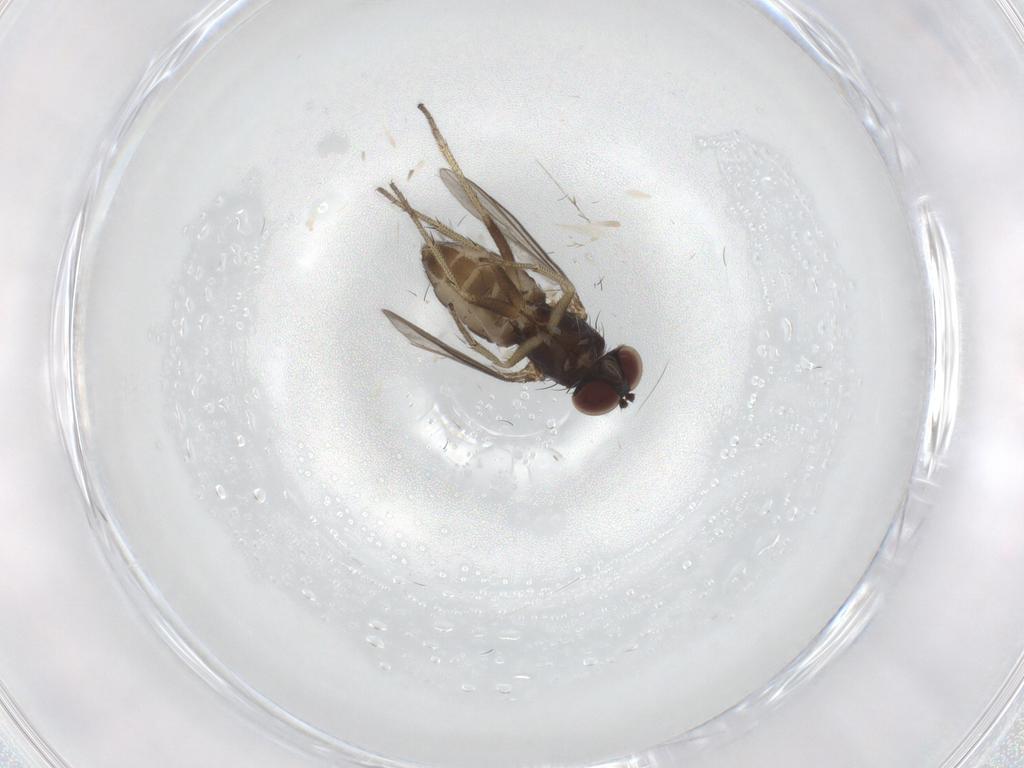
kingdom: Animalia
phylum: Arthropoda
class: Insecta
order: Diptera
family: Dolichopodidae
